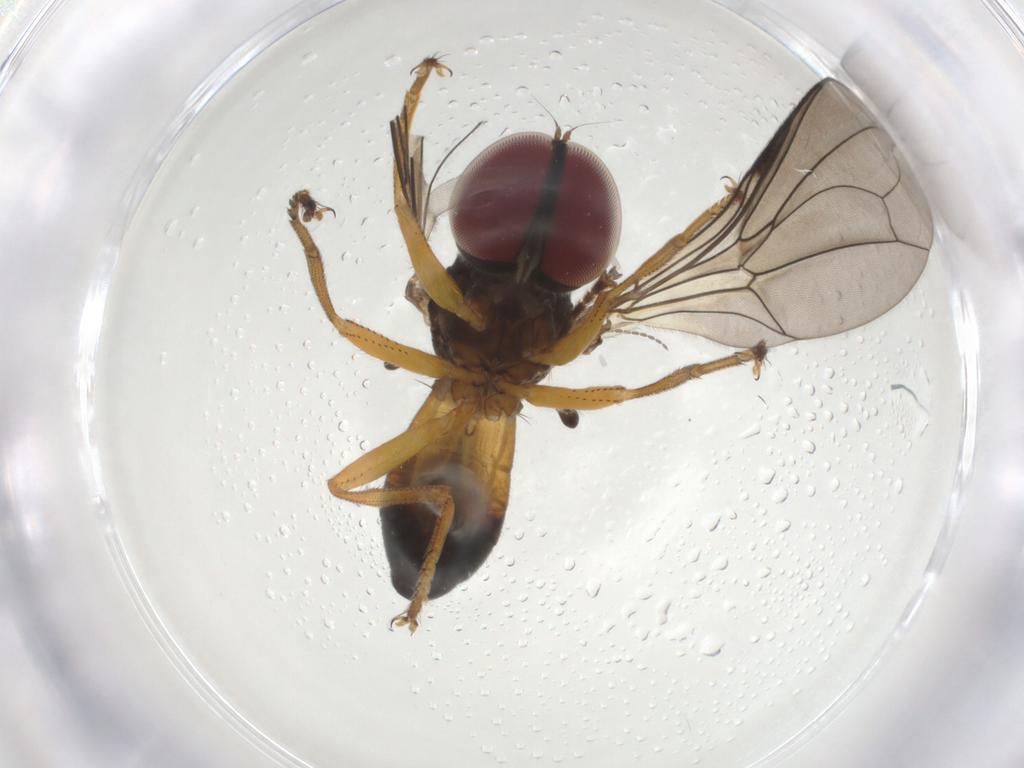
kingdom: Animalia
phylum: Arthropoda
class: Insecta
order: Diptera
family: Pipunculidae
